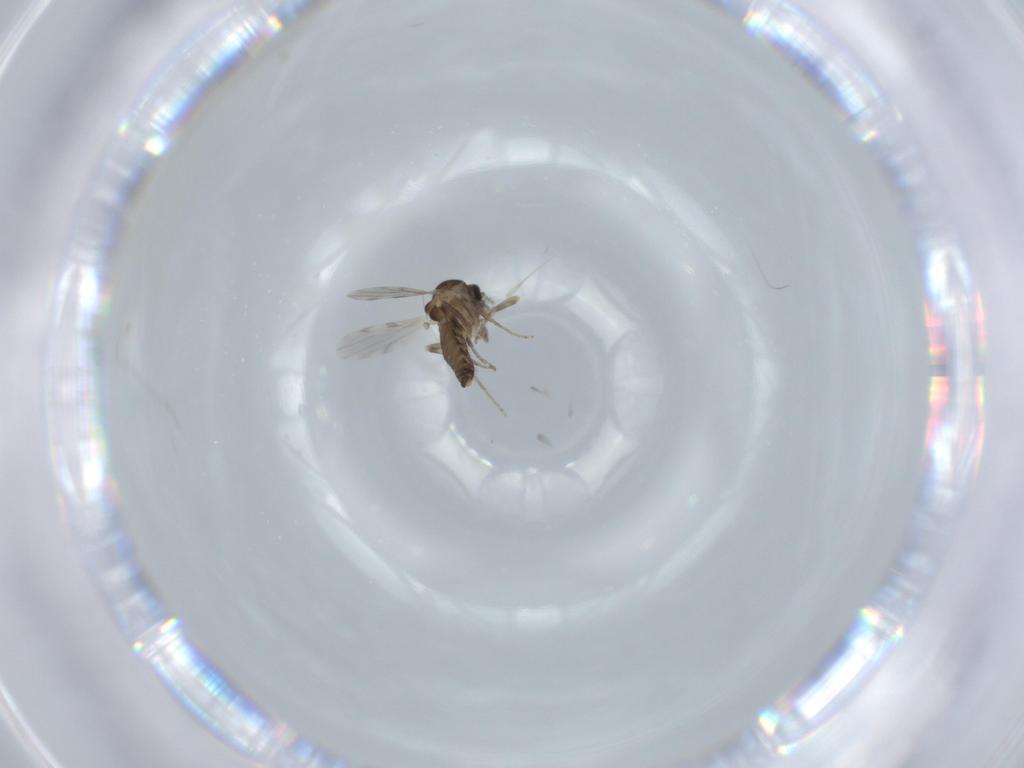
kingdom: Animalia
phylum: Arthropoda
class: Insecta
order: Diptera
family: Ceratopogonidae
